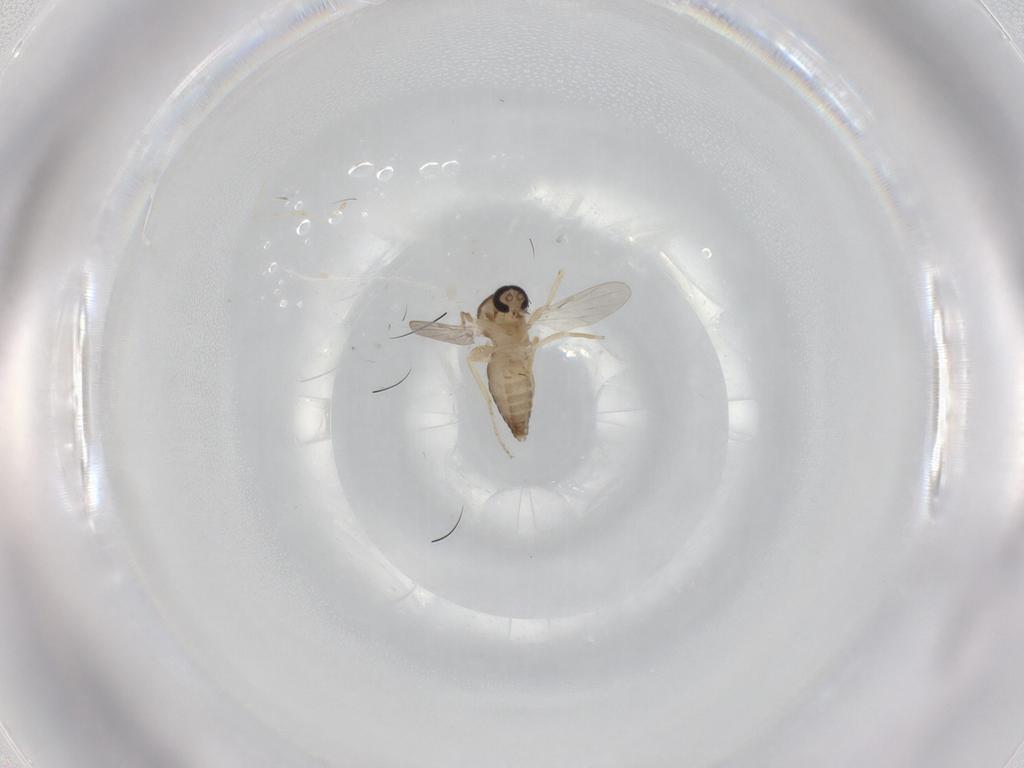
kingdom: Animalia
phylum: Arthropoda
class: Insecta
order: Diptera
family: Ceratopogonidae
